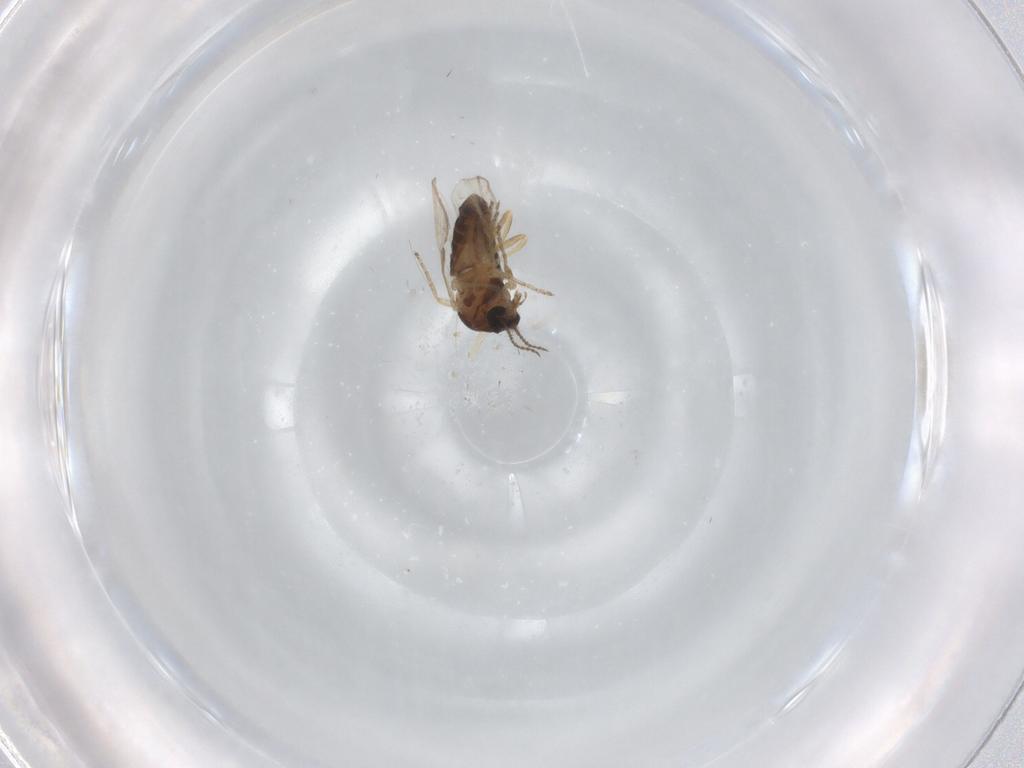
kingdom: Animalia
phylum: Arthropoda
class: Insecta
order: Diptera
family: Ceratopogonidae
